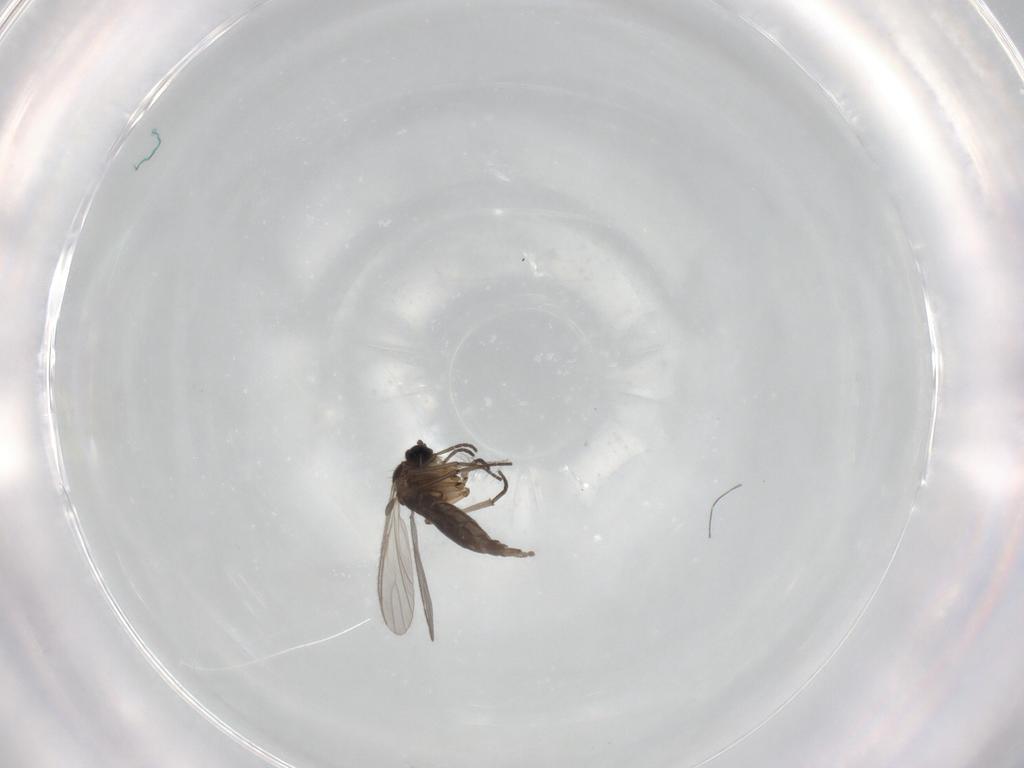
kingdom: Animalia
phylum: Arthropoda
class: Insecta
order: Diptera
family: Sciaridae
